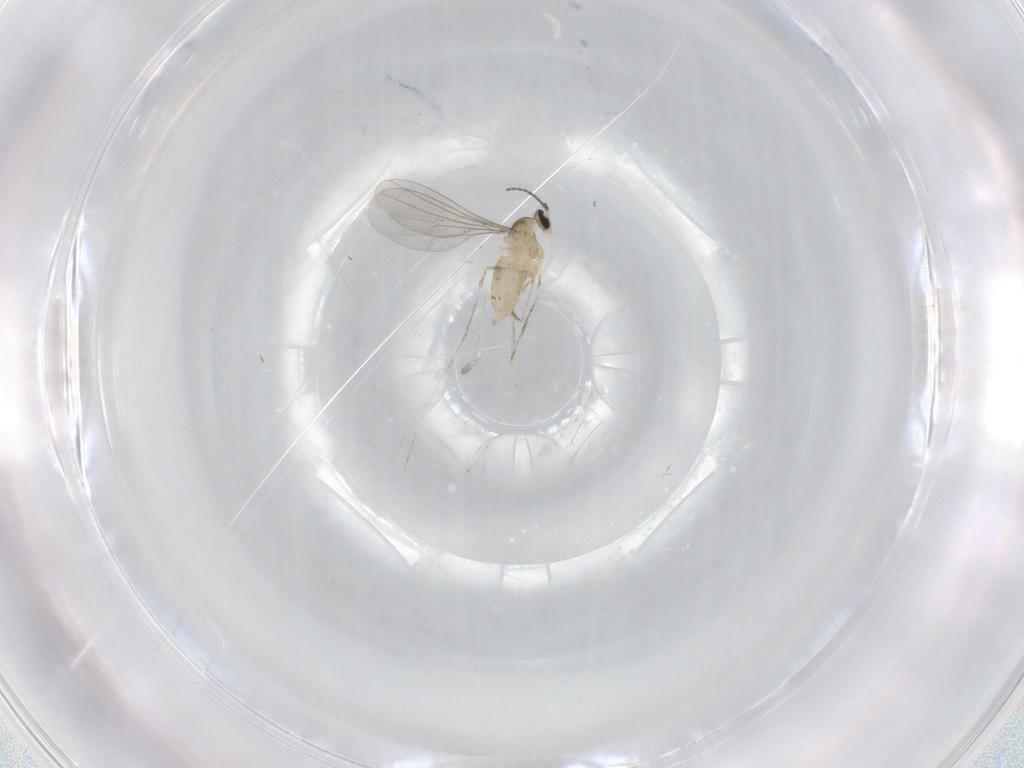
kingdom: Animalia
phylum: Arthropoda
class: Insecta
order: Diptera
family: Cecidomyiidae
